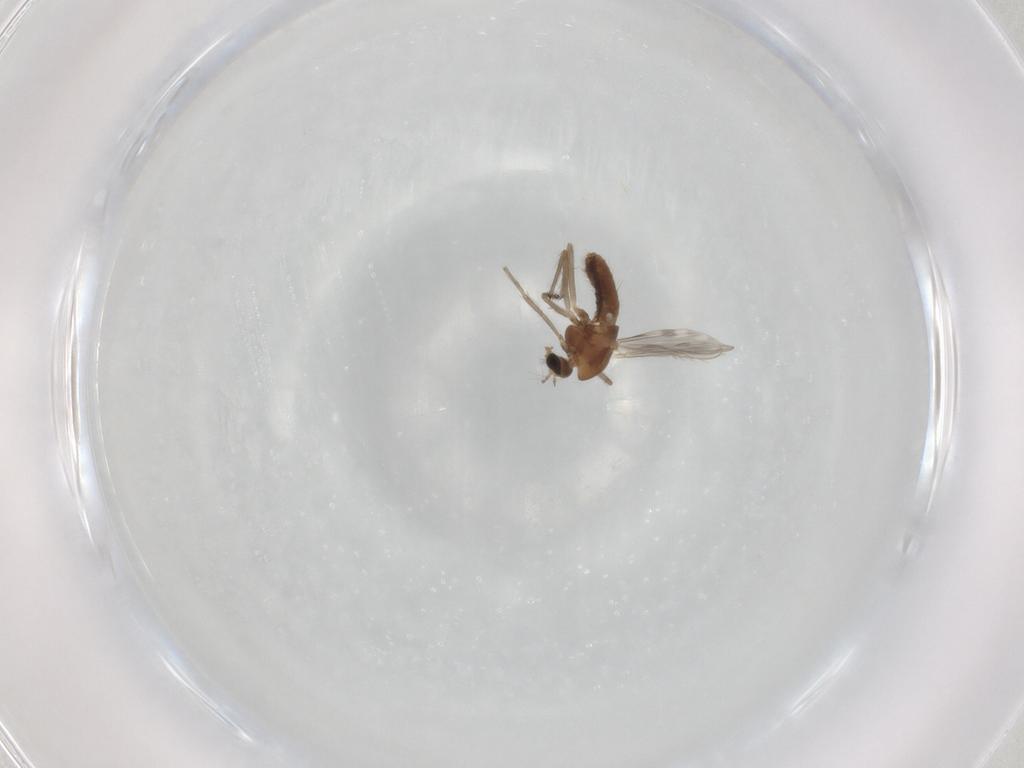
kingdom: Animalia
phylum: Arthropoda
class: Insecta
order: Diptera
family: Chironomidae
